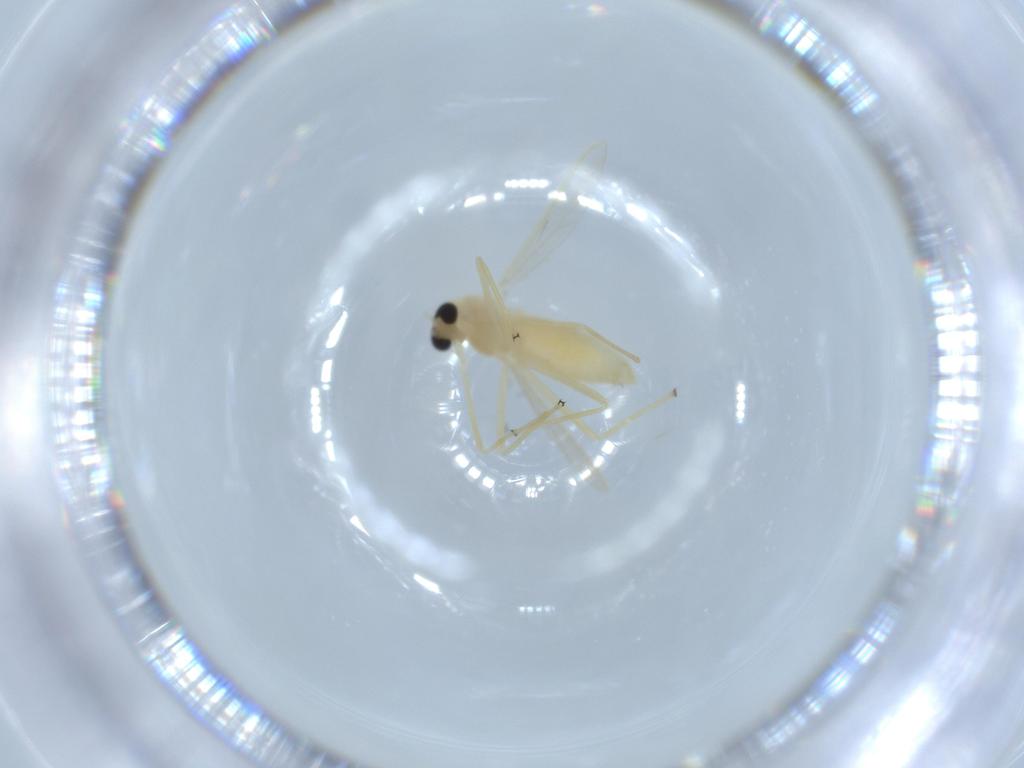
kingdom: Animalia
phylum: Arthropoda
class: Insecta
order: Diptera
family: Chironomidae
